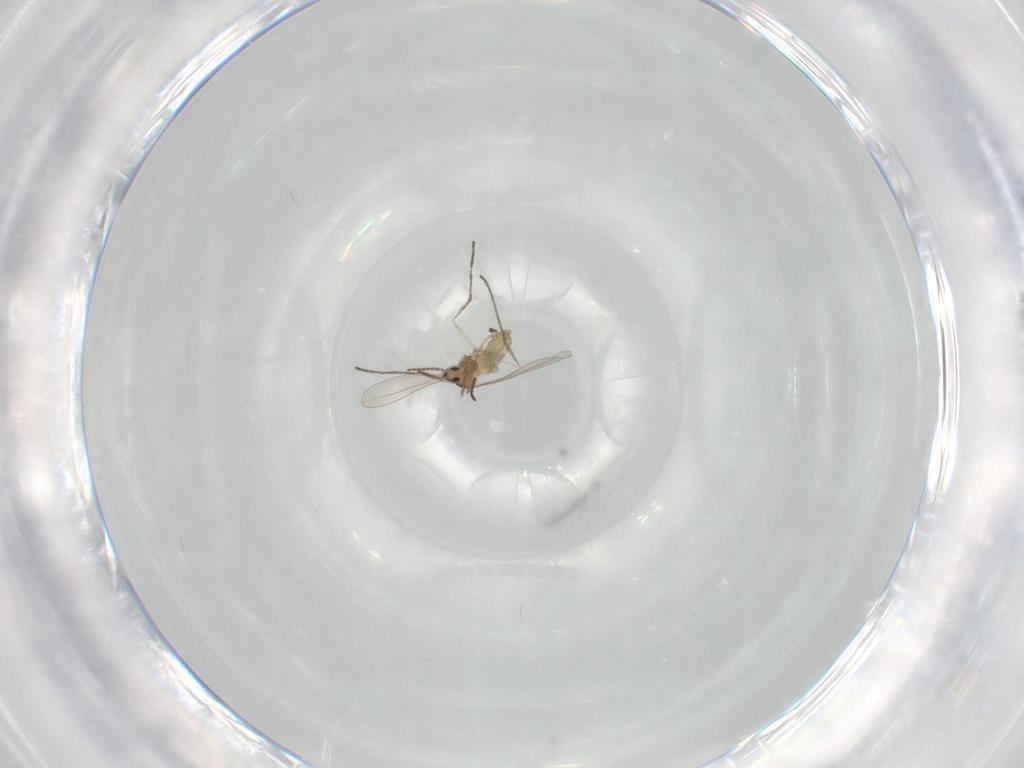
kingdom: Animalia
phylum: Arthropoda
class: Insecta
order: Diptera
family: Cecidomyiidae
